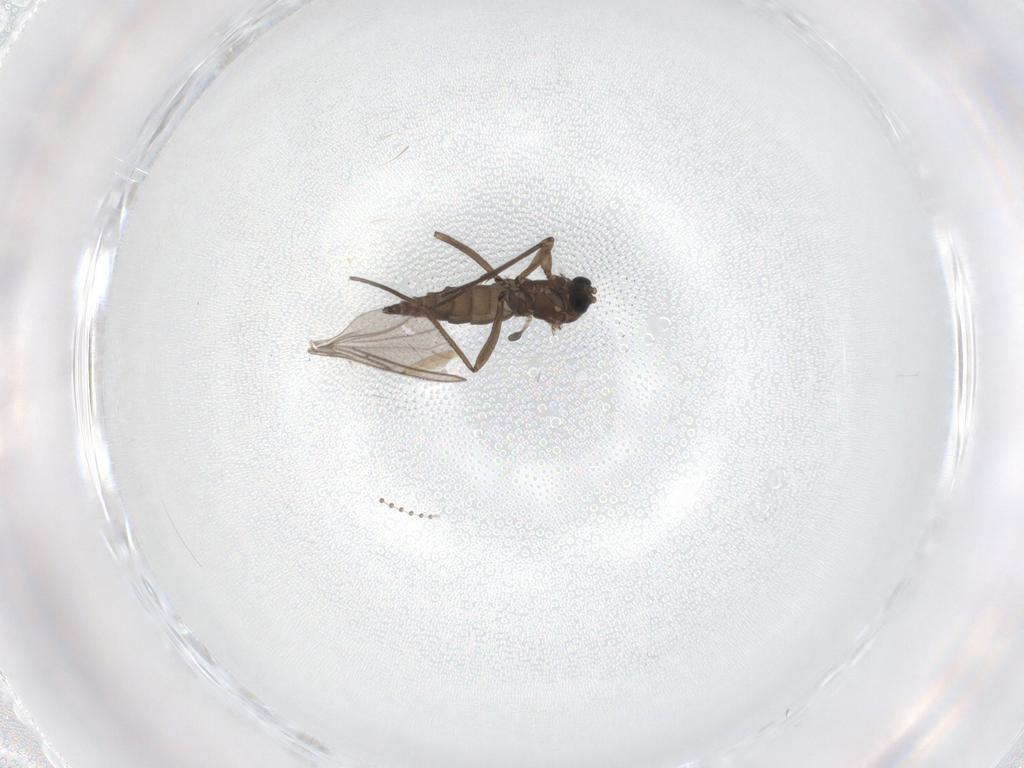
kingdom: Animalia
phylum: Arthropoda
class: Insecta
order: Diptera
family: Sciaridae
